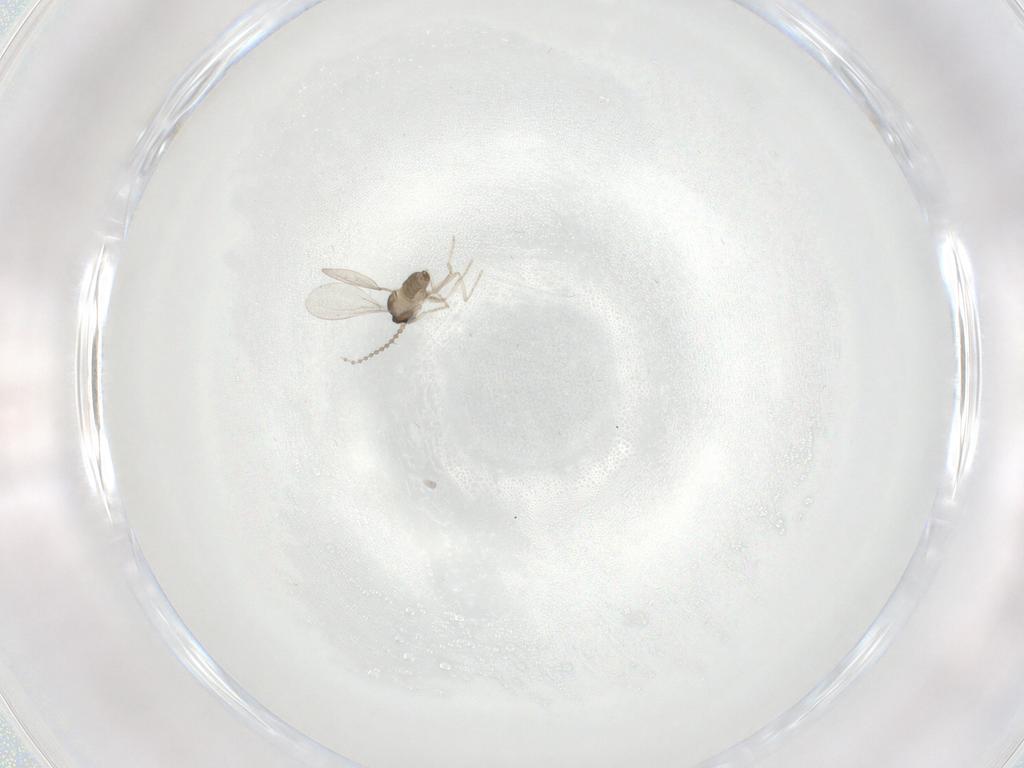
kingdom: Animalia
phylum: Arthropoda
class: Insecta
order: Diptera
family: Cecidomyiidae
